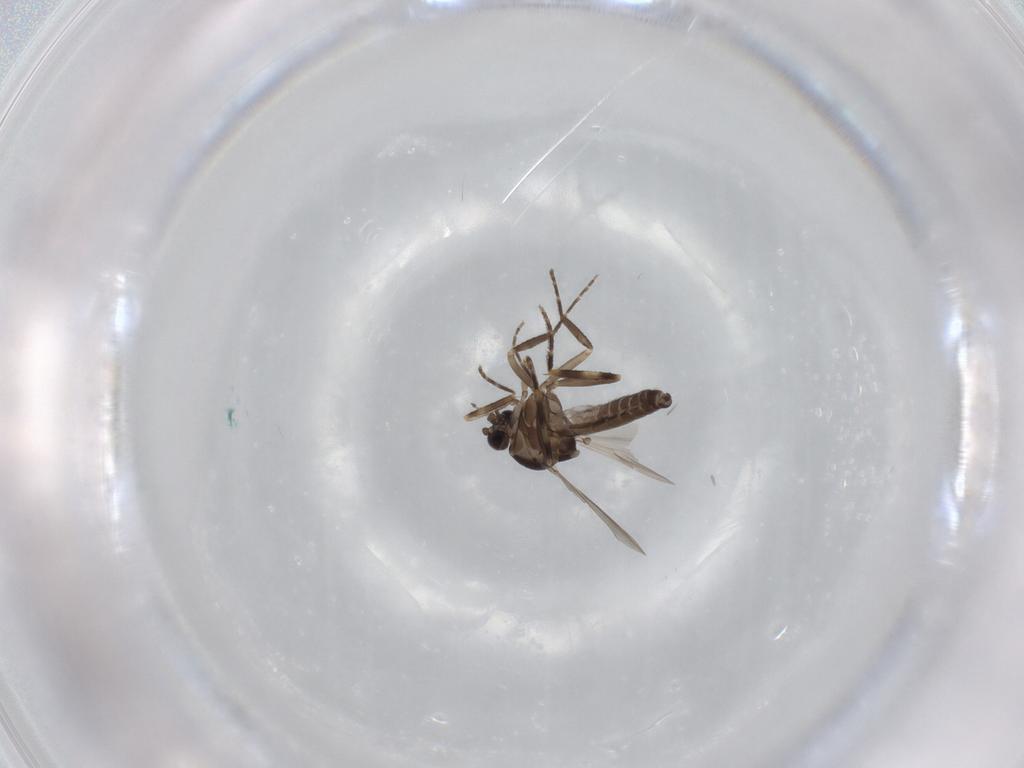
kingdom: Animalia
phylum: Arthropoda
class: Insecta
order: Diptera
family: Ceratopogonidae
